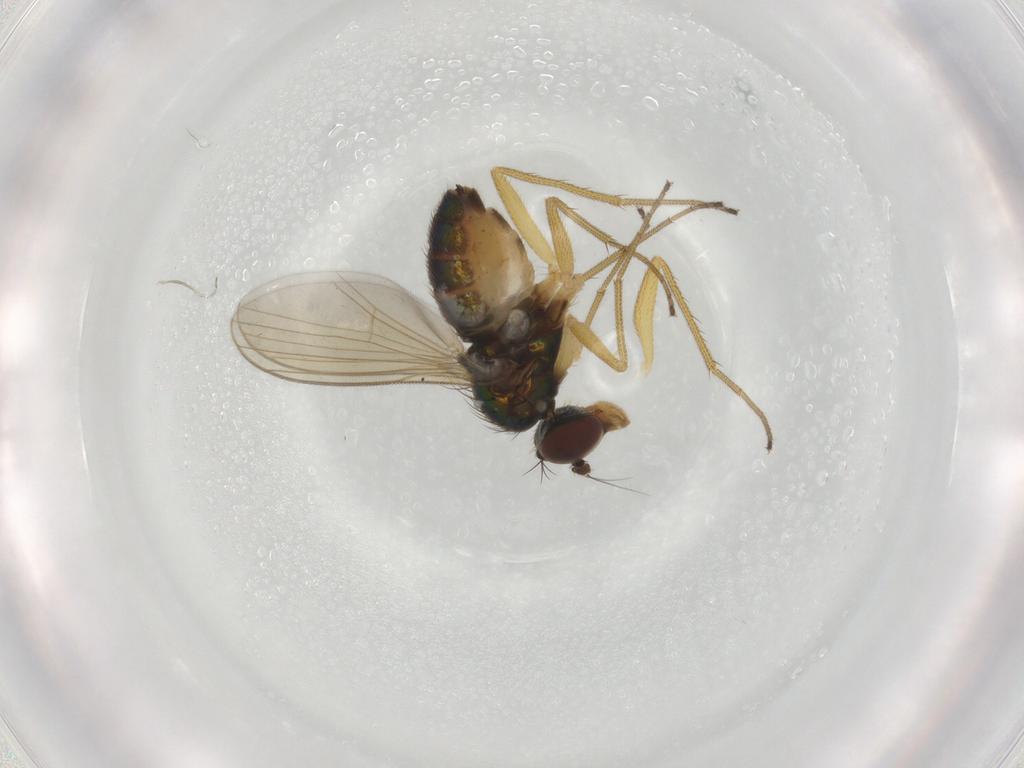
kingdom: Animalia
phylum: Arthropoda
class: Insecta
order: Diptera
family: Dolichopodidae
